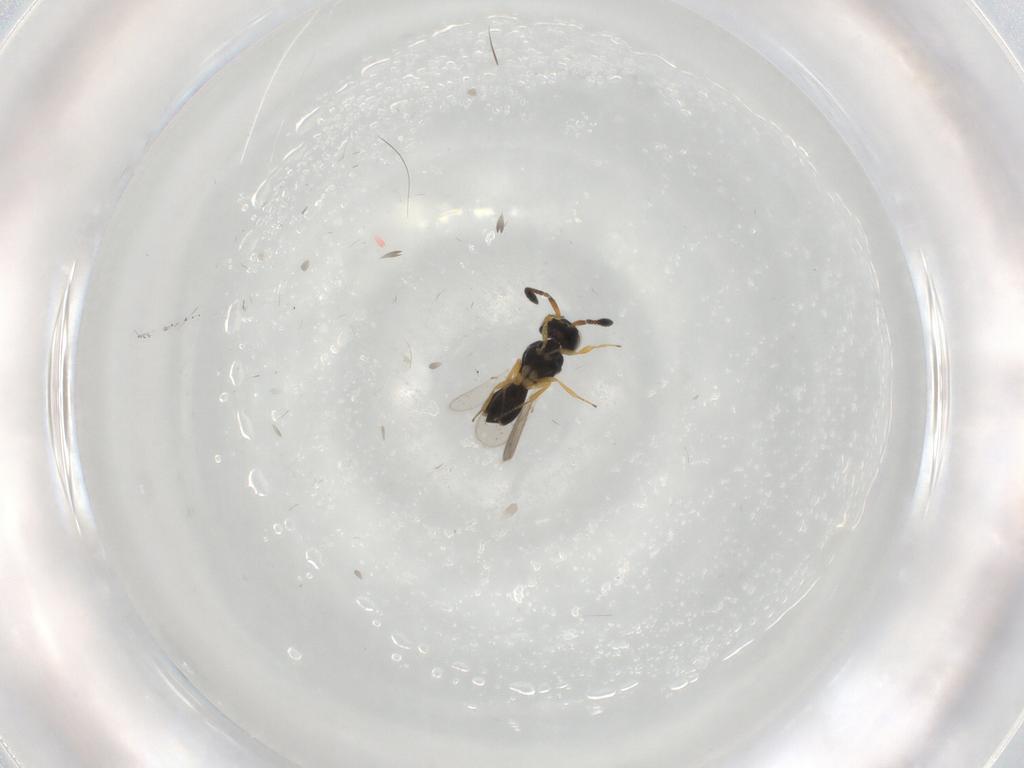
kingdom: Animalia
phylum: Arthropoda
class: Insecta
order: Hymenoptera
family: Scelionidae
